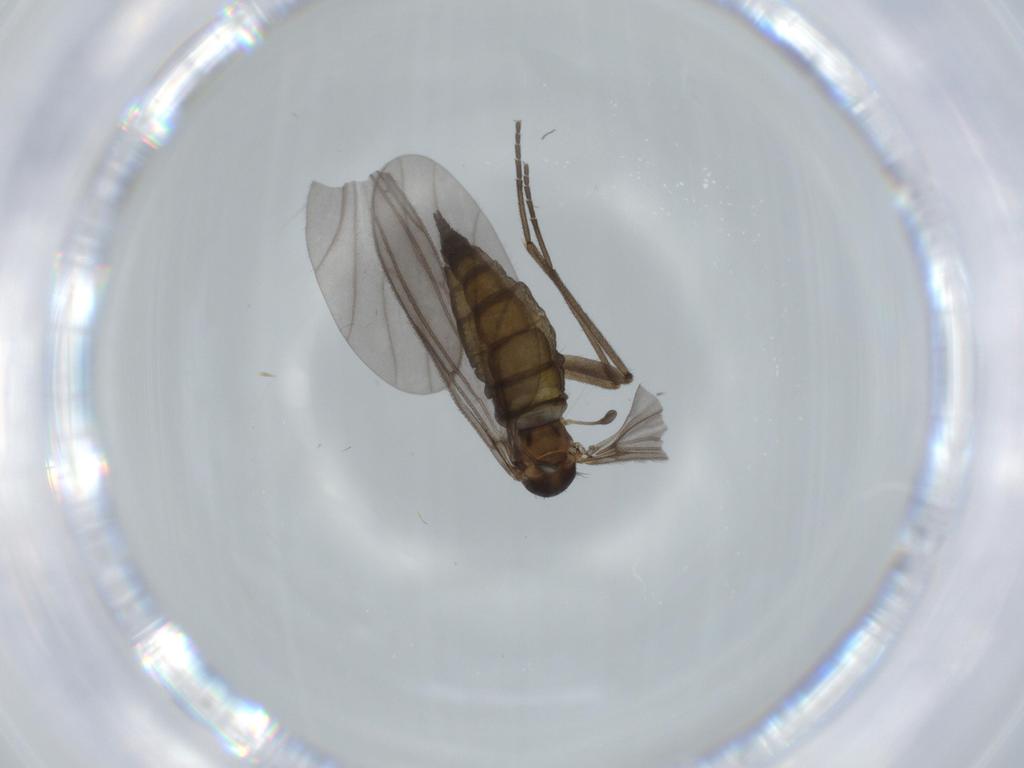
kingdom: Animalia
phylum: Arthropoda
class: Insecta
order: Diptera
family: Sciaridae
